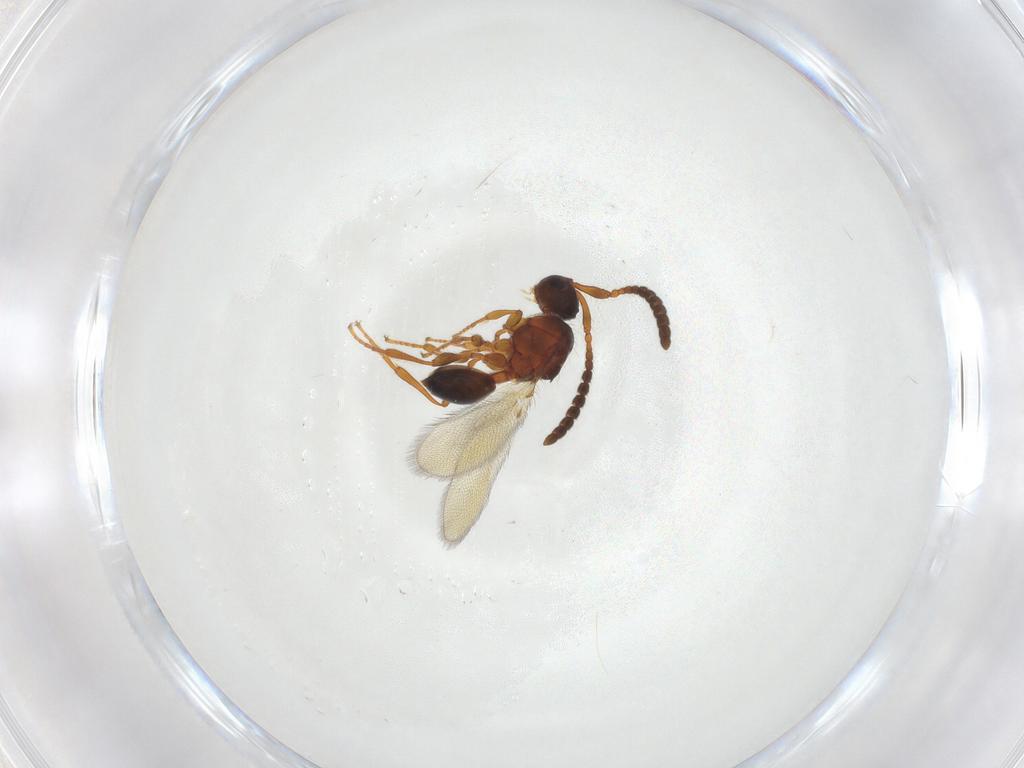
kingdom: Animalia
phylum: Arthropoda
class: Insecta
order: Hymenoptera
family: Diapriidae
